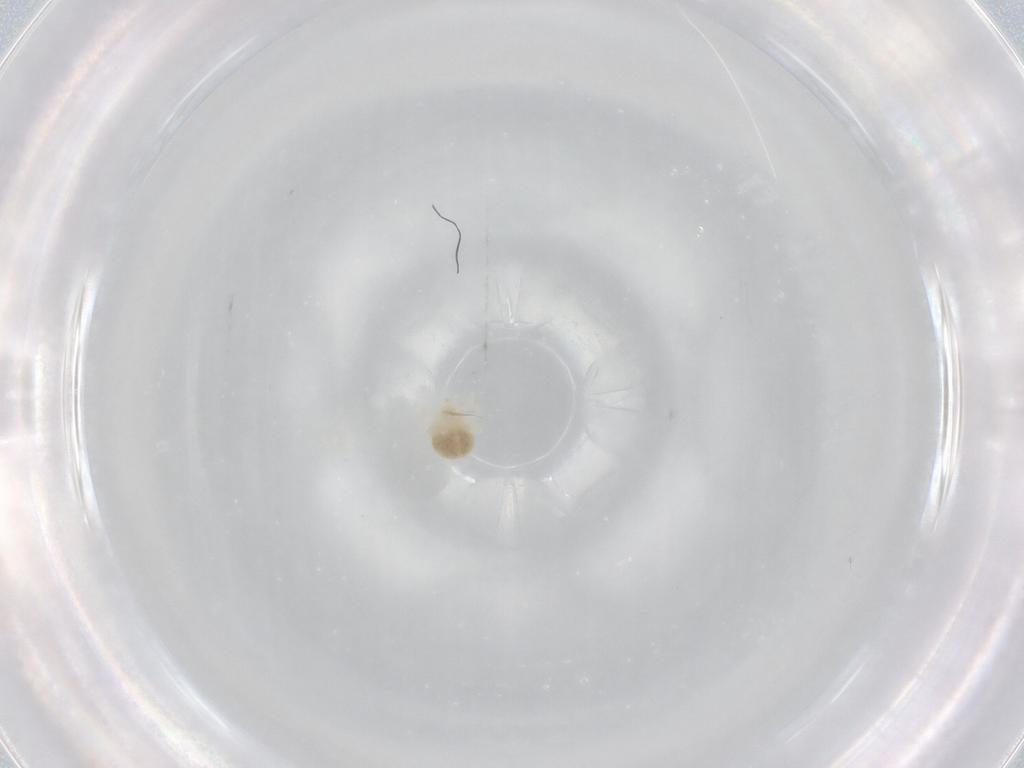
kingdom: Animalia
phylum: Arthropoda
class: Arachnida
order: Trombidiformes
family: Anystidae
